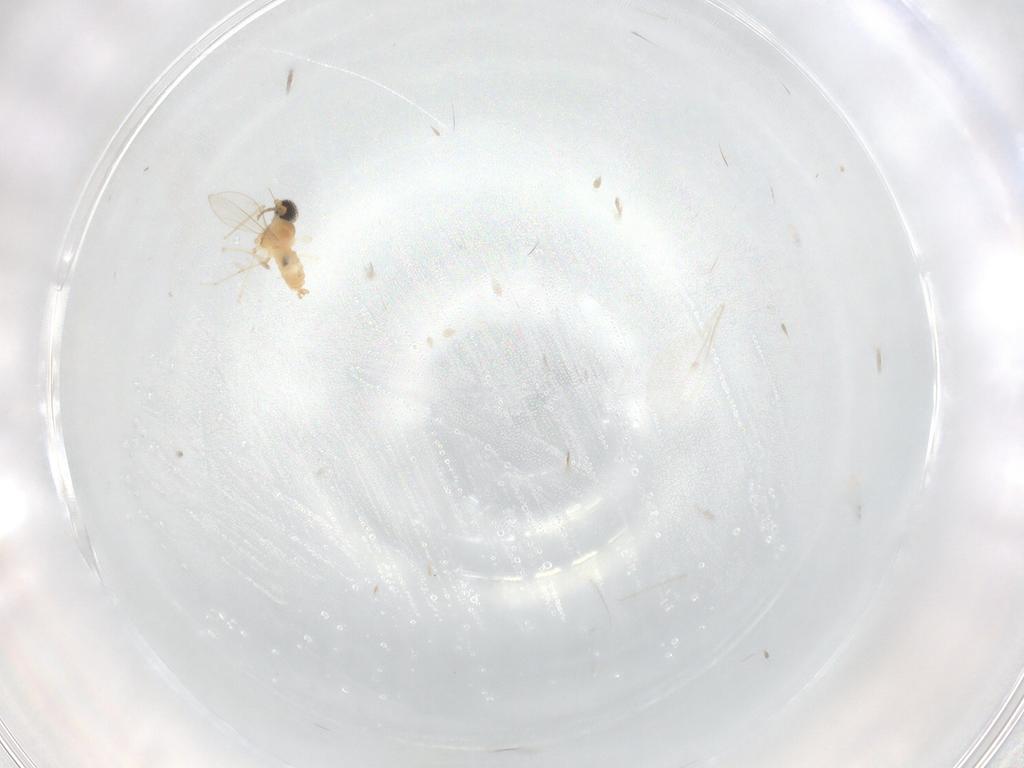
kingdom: Animalia
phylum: Arthropoda
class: Insecta
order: Diptera
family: Cecidomyiidae
